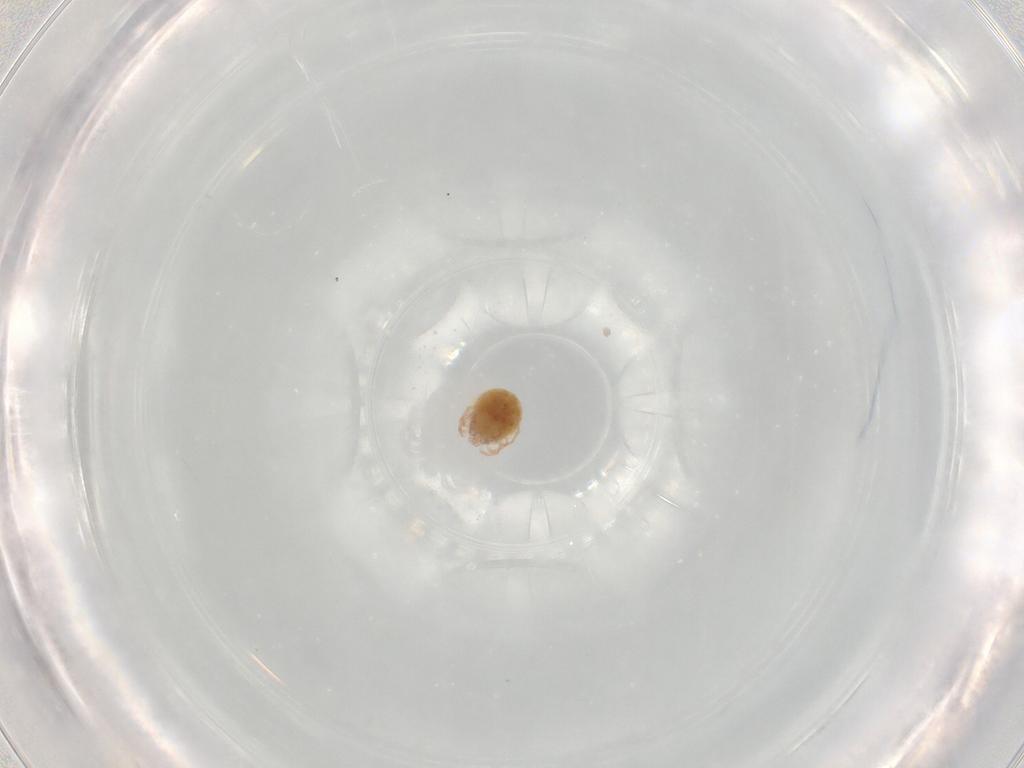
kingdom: Animalia
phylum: Arthropoda
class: Arachnida
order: Trombidiformes
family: Lebertiidae
